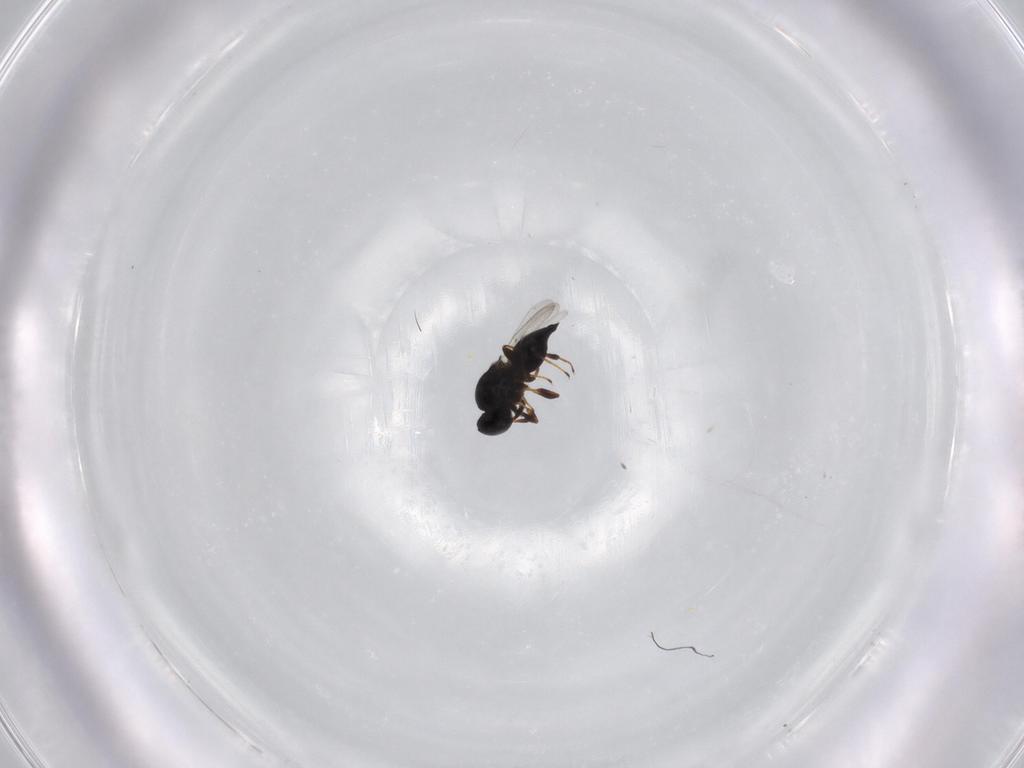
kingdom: Animalia
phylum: Arthropoda
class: Insecta
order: Hymenoptera
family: Platygastridae
